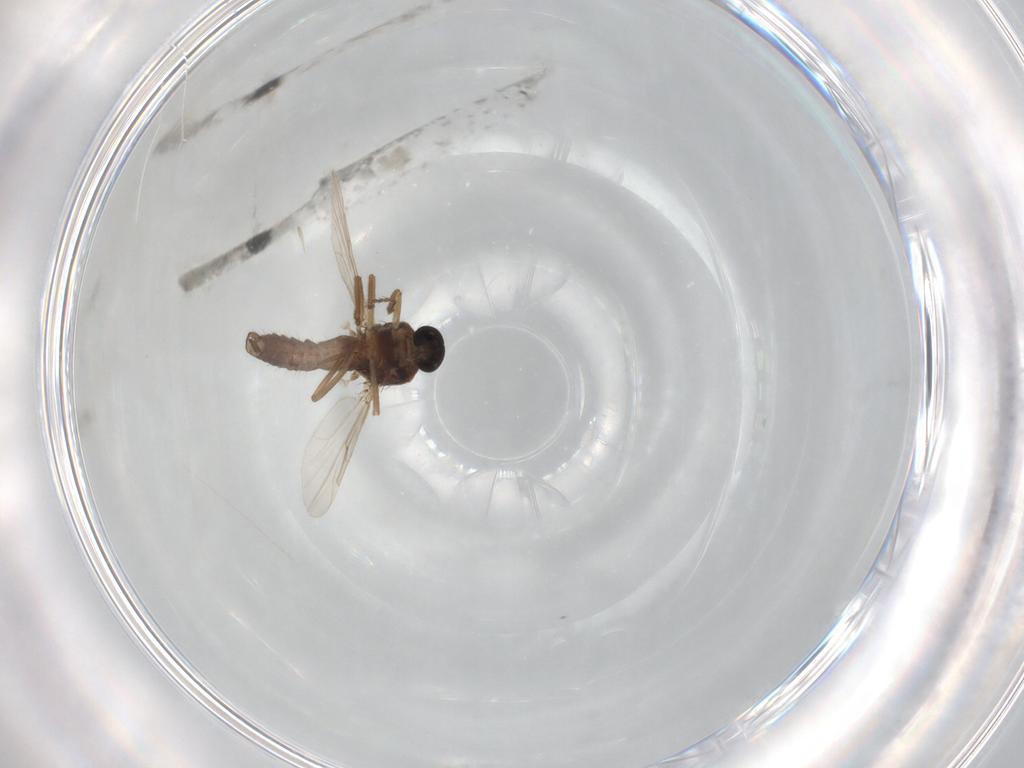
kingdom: Animalia
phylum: Arthropoda
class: Insecta
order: Diptera
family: Ceratopogonidae
